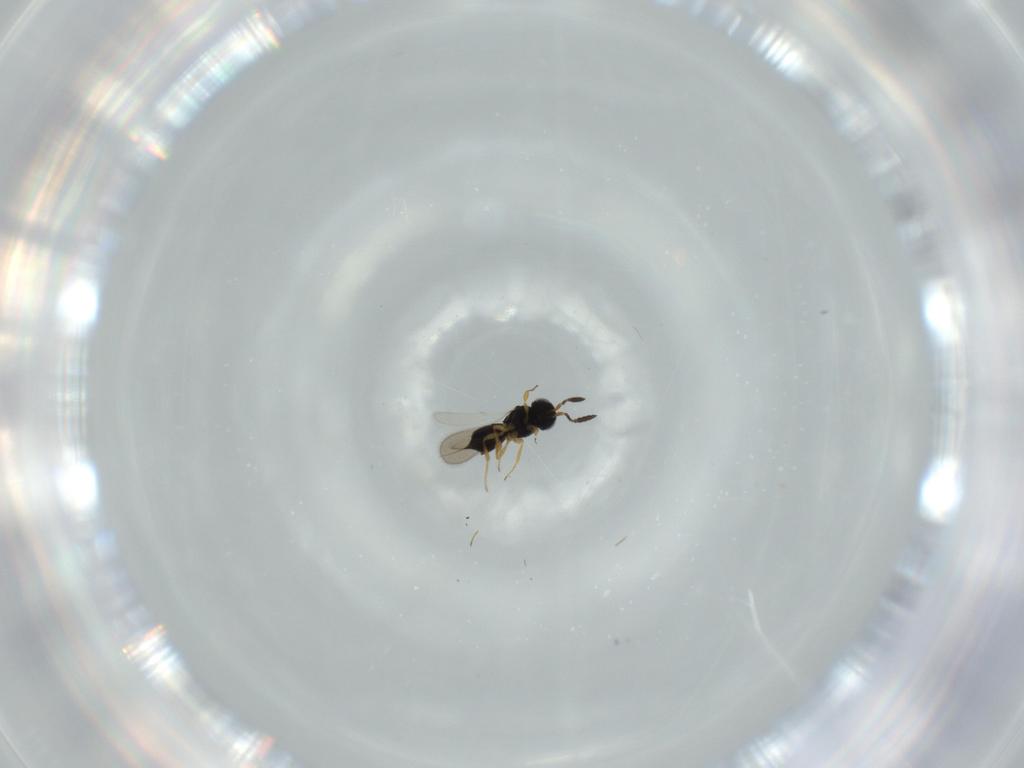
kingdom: Animalia
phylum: Arthropoda
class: Insecta
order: Hymenoptera
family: Scelionidae
